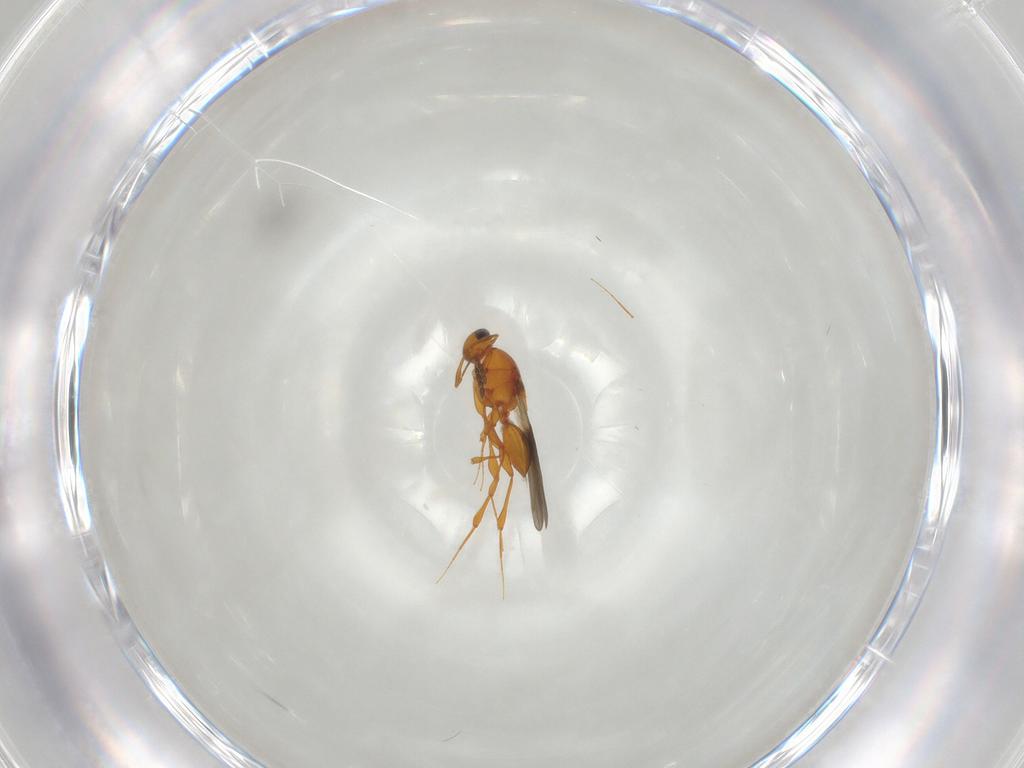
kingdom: Animalia
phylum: Arthropoda
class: Insecta
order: Hymenoptera
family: Platygastridae
